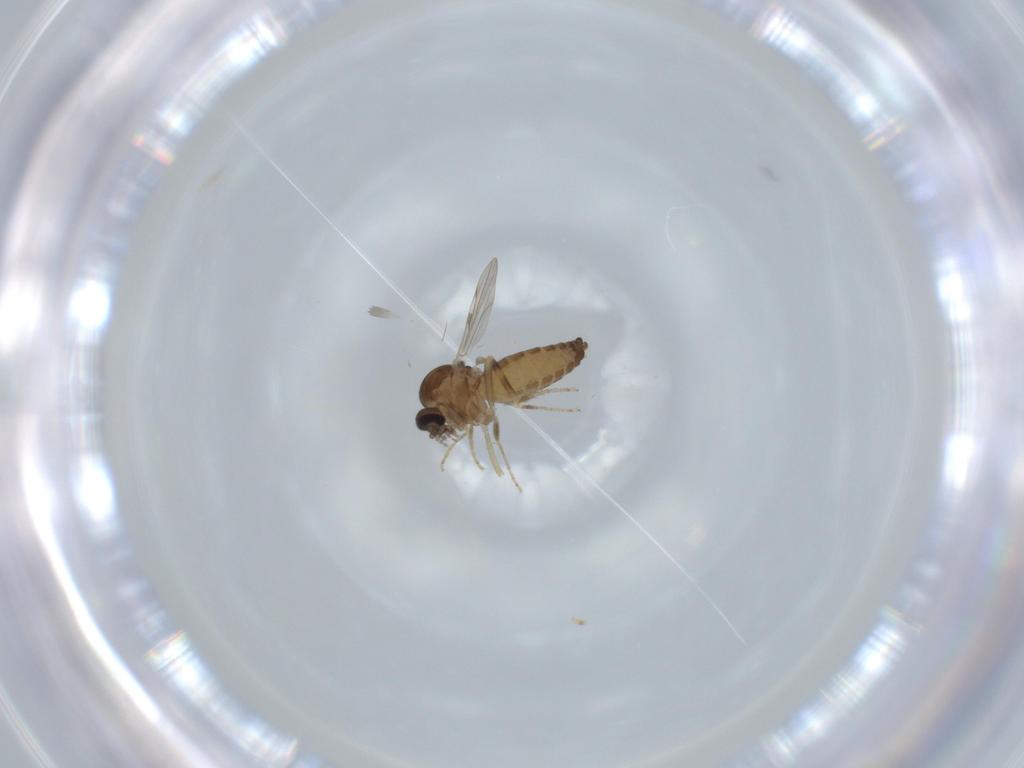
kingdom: Animalia
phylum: Arthropoda
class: Insecta
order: Diptera
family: Ceratopogonidae
